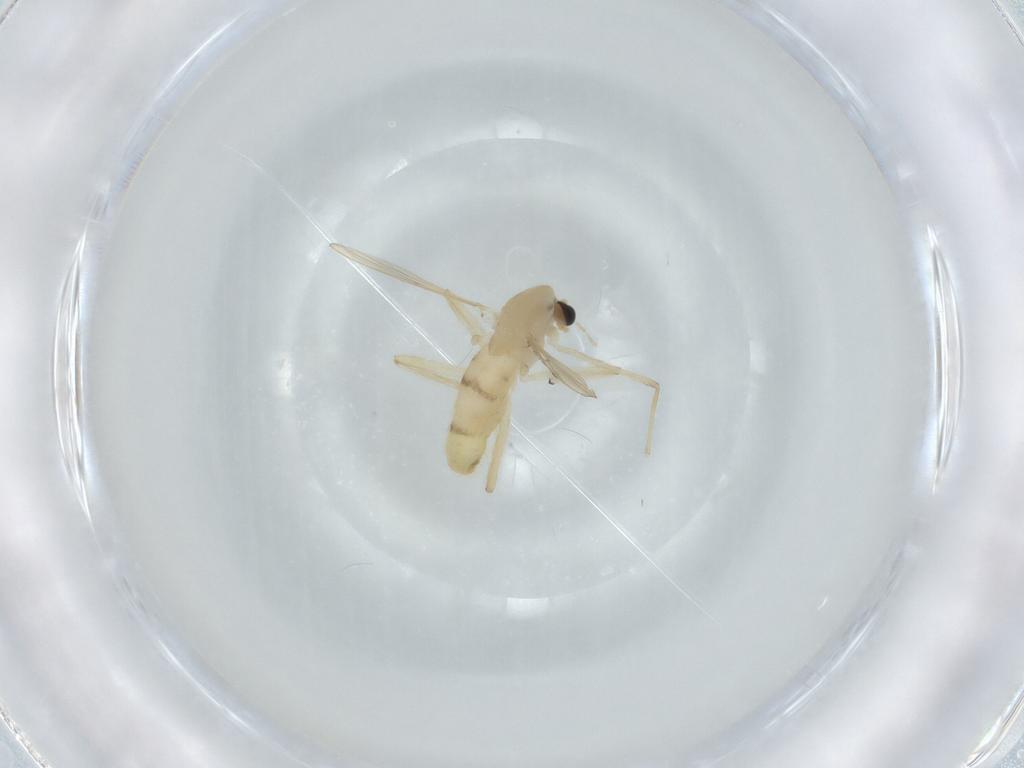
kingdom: Animalia
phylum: Arthropoda
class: Insecta
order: Diptera
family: Chironomidae
